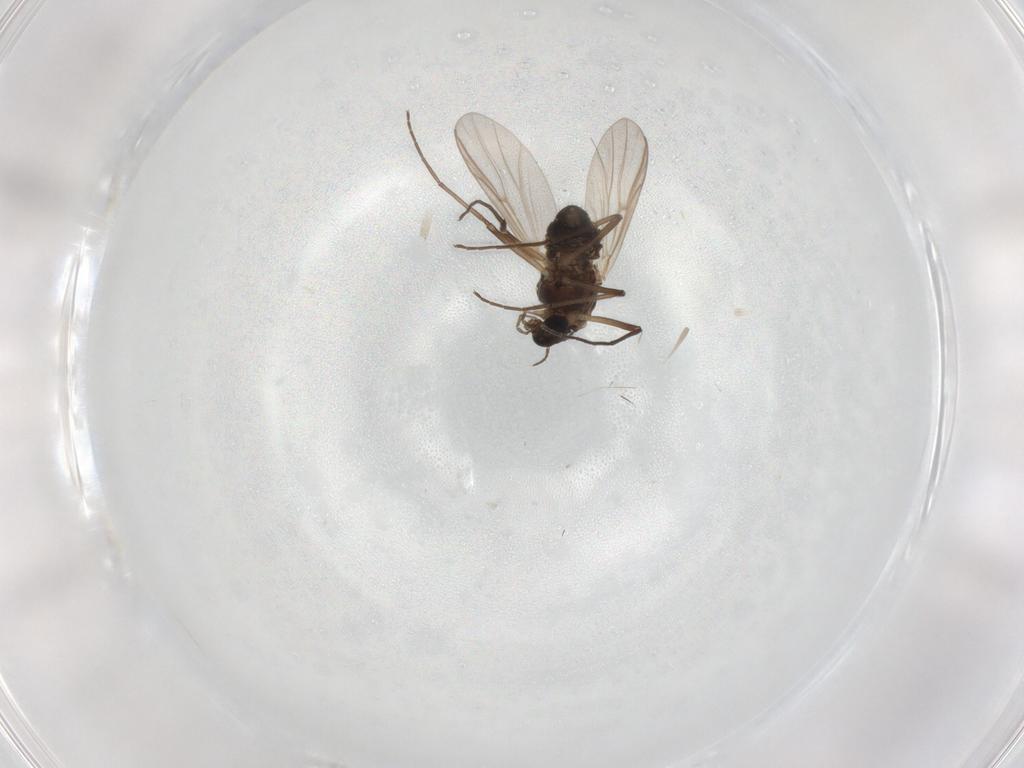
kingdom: Animalia
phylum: Arthropoda
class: Insecta
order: Diptera
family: Chironomidae
